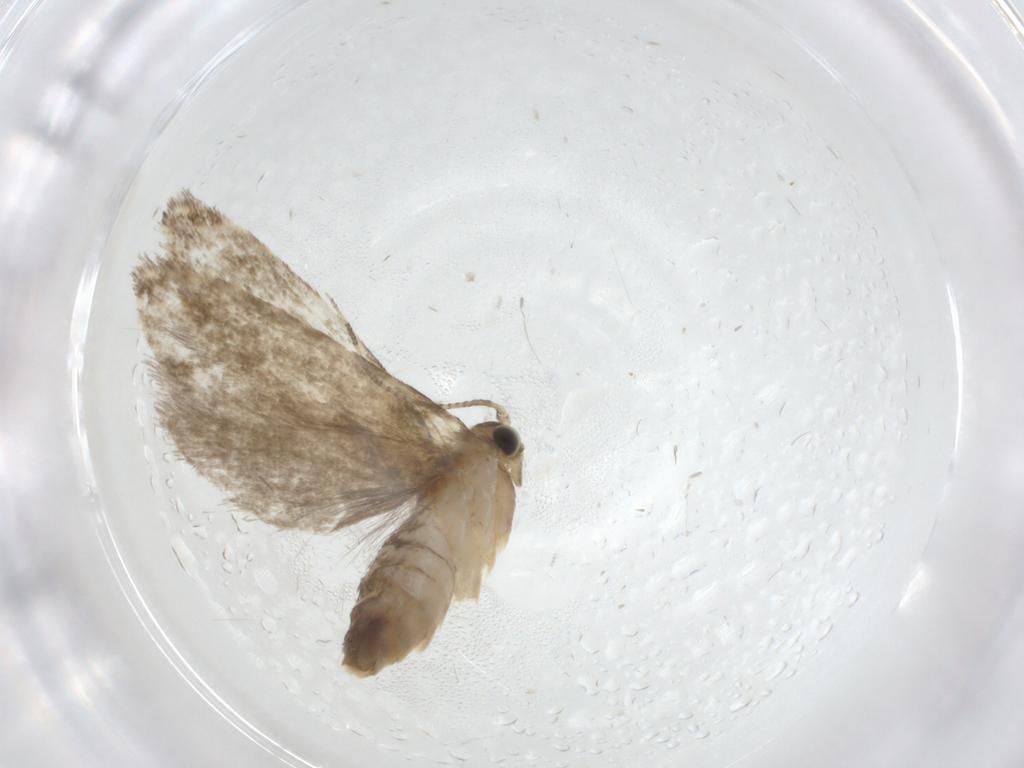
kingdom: Animalia
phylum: Arthropoda
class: Insecta
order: Lepidoptera
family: Tineidae
